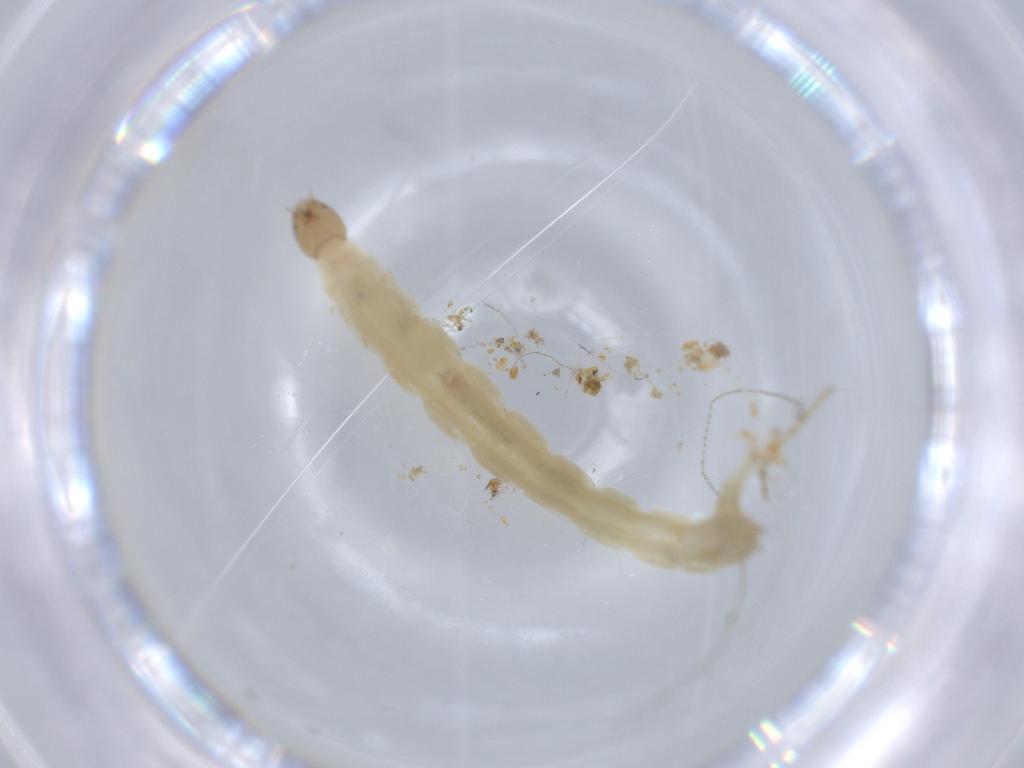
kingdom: Animalia
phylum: Arthropoda
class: Insecta
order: Diptera
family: Chironomidae
